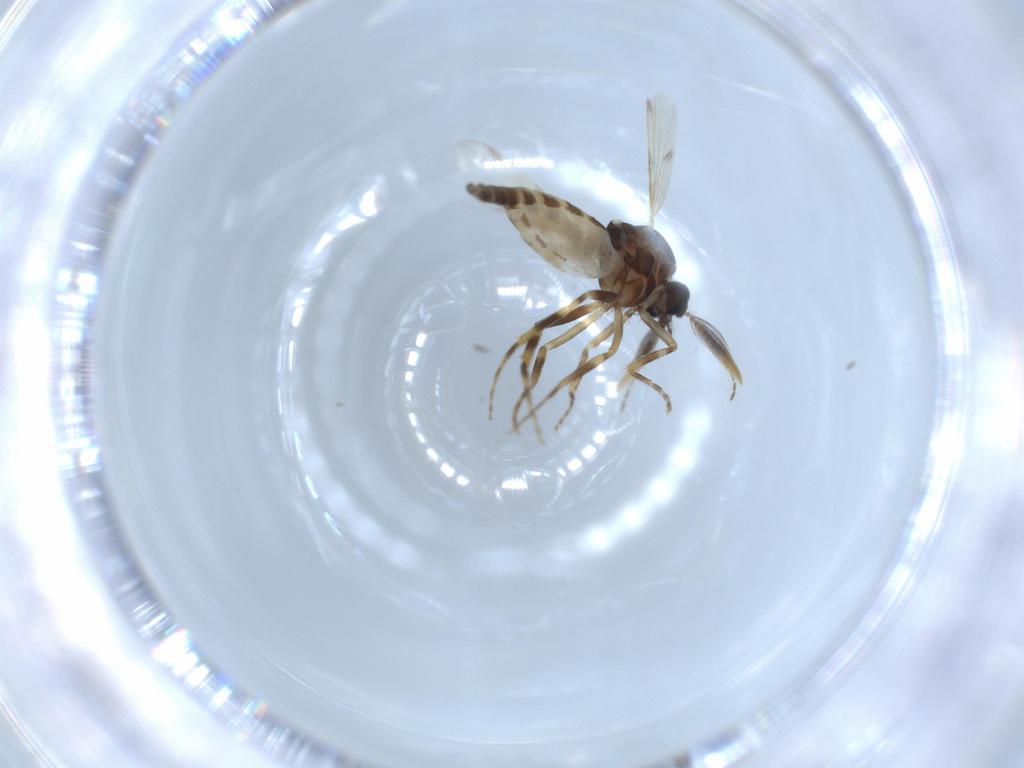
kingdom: Animalia
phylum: Arthropoda
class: Insecta
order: Diptera
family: Ceratopogonidae
